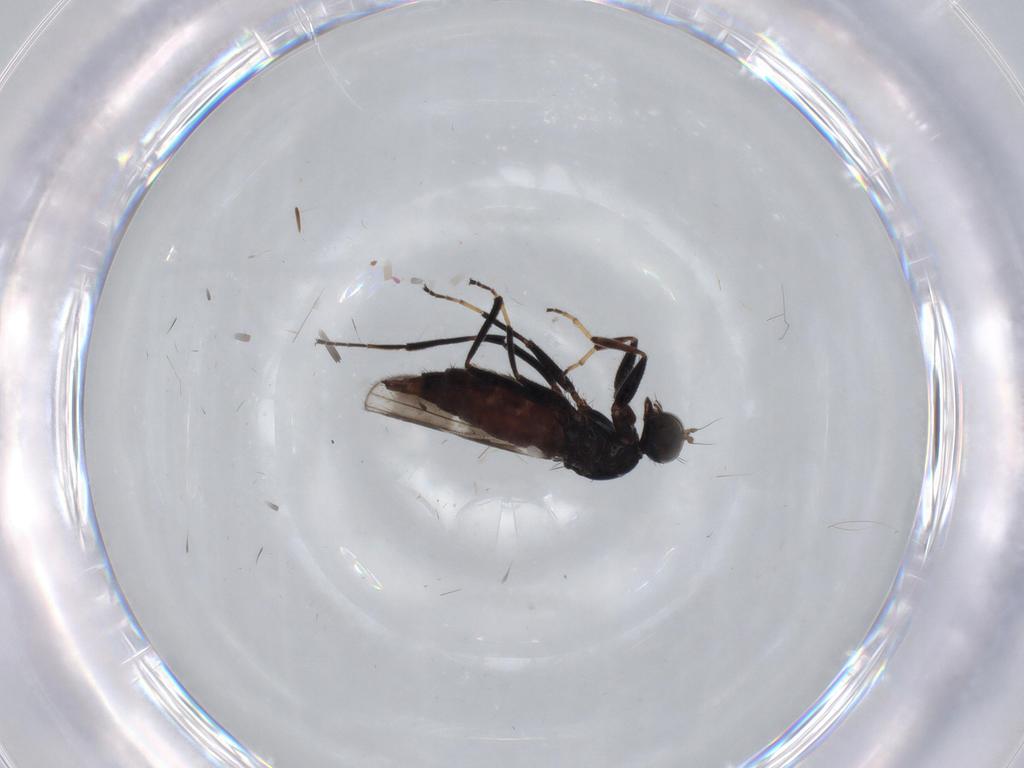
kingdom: Animalia
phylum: Arthropoda
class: Insecta
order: Diptera
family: Hybotidae
